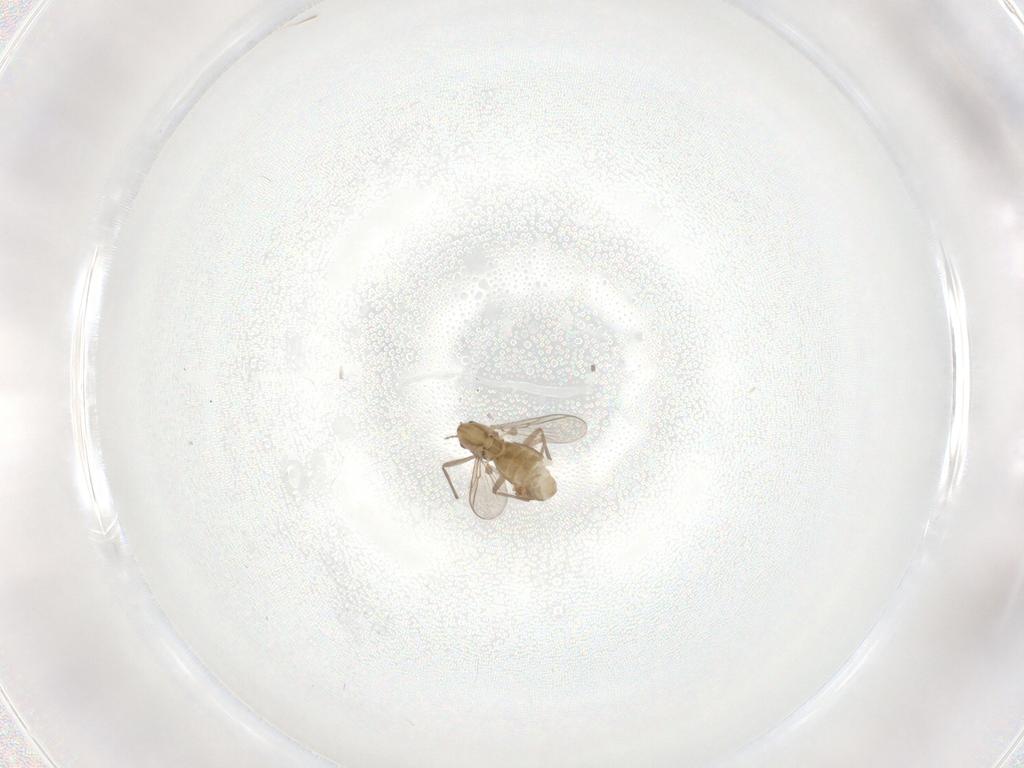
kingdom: Animalia
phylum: Arthropoda
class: Insecta
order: Diptera
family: Chironomidae
